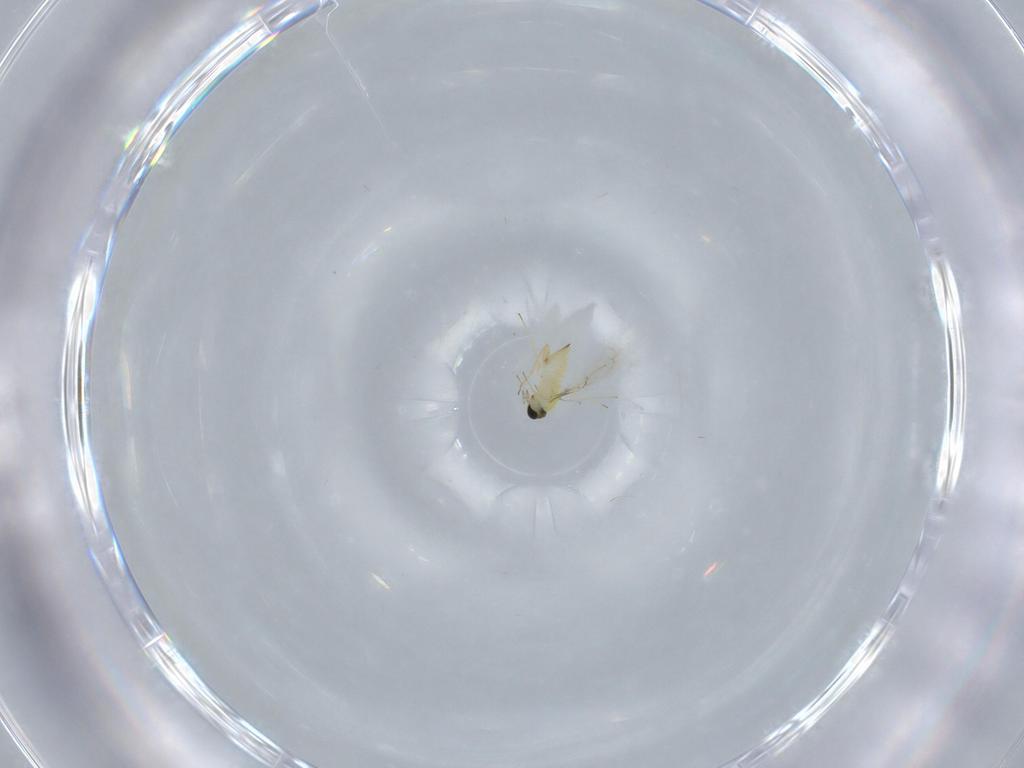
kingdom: Animalia
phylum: Arthropoda
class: Insecta
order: Hymenoptera
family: Trichogrammatidae
